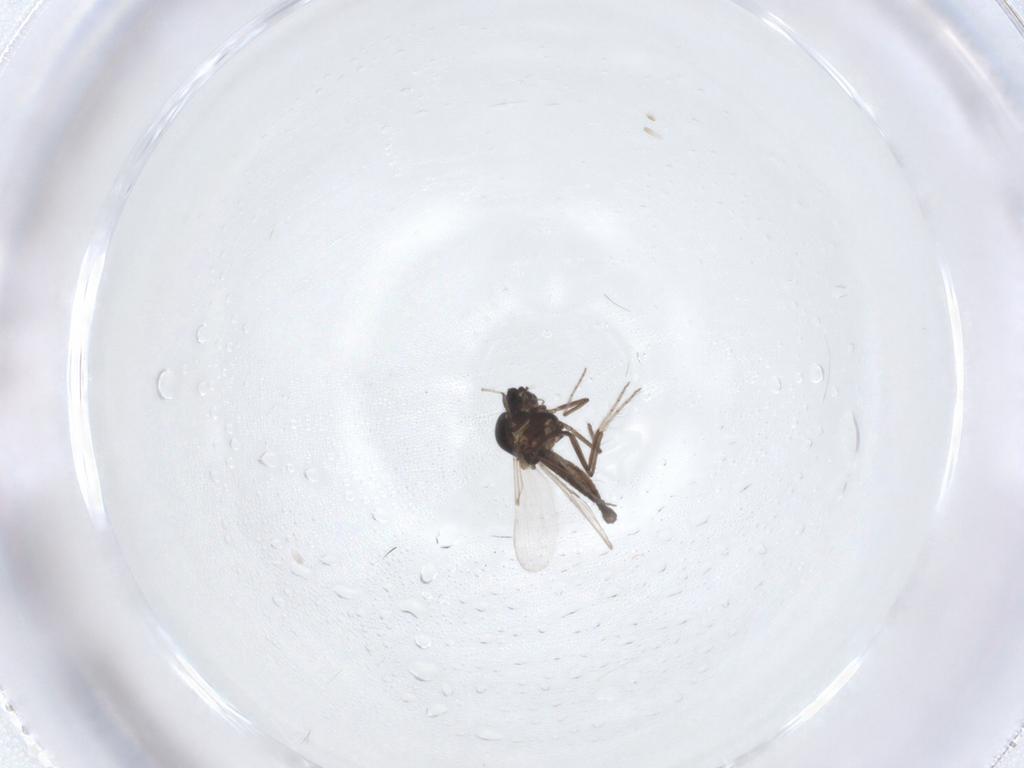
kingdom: Animalia
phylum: Arthropoda
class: Insecta
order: Diptera
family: Ceratopogonidae
